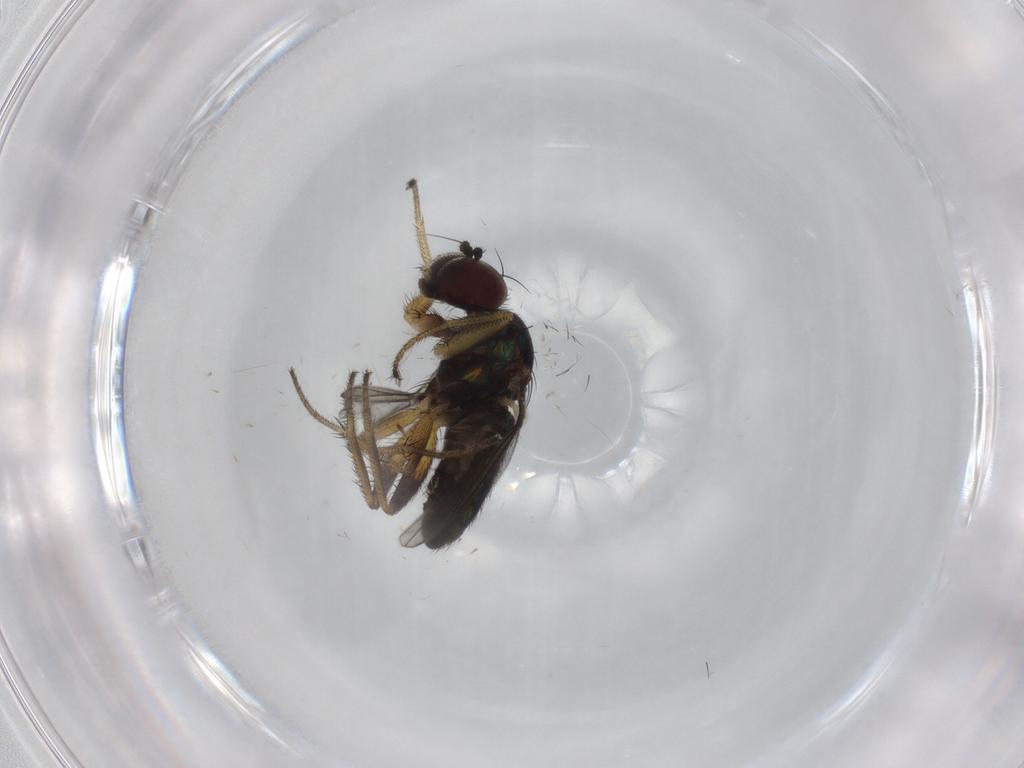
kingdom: Animalia
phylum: Arthropoda
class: Insecta
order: Diptera
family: Dolichopodidae
